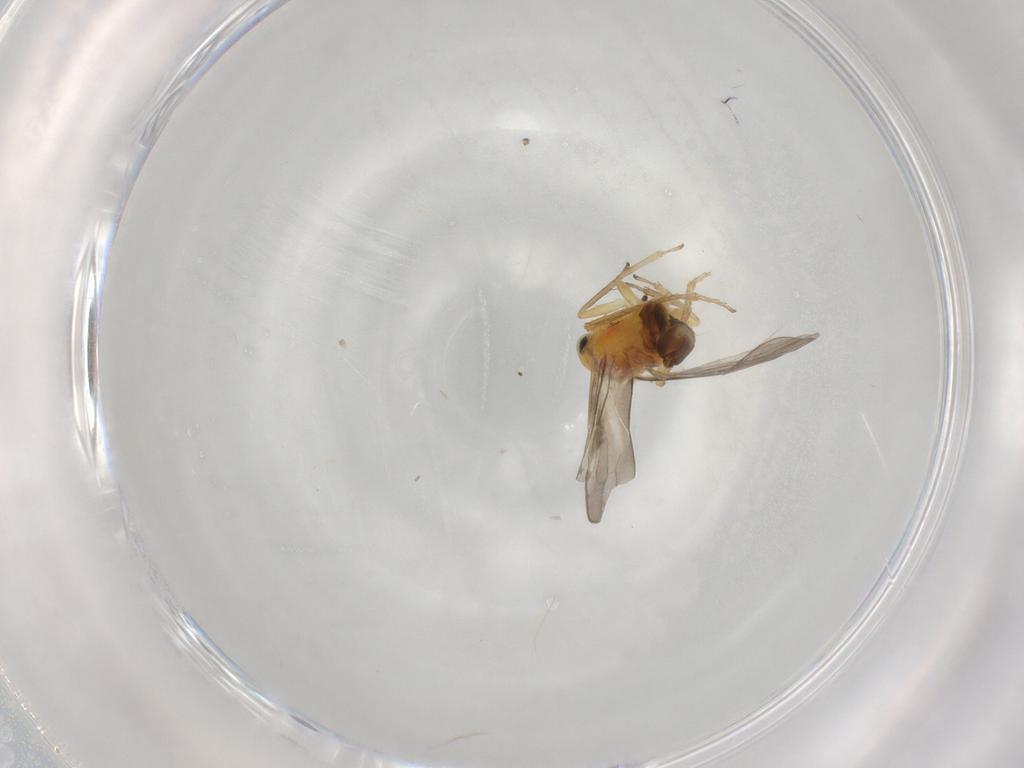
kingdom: Animalia
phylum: Arthropoda
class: Insecta
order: Hemiptera
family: Cicadellidae
